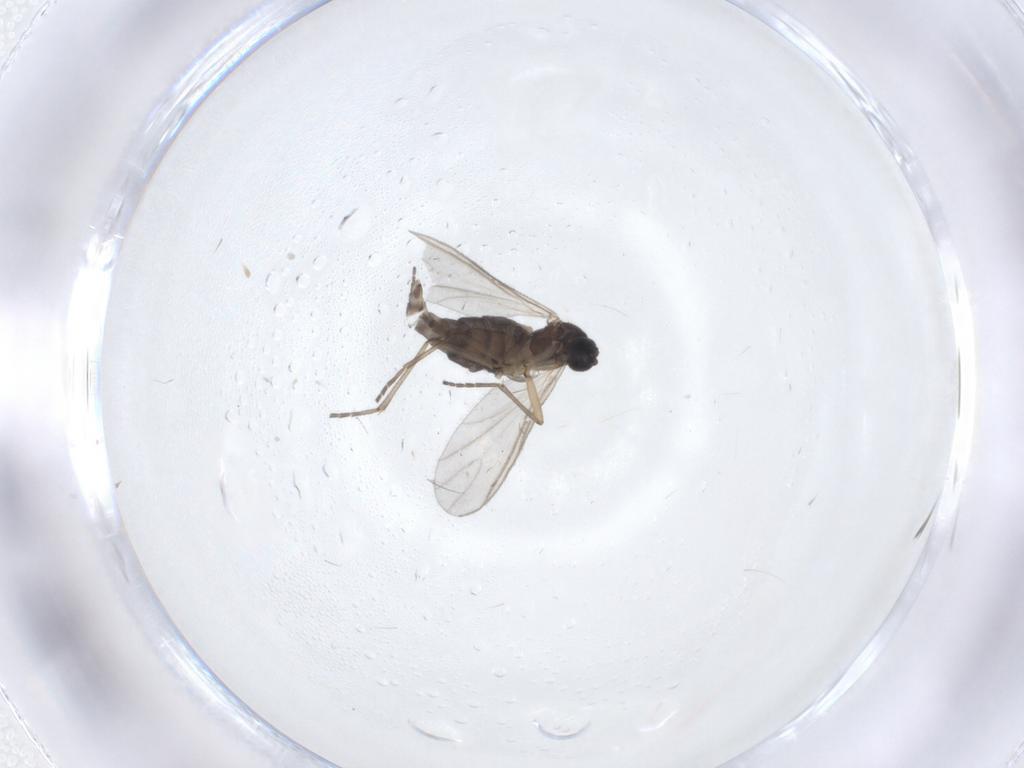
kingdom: Animalia
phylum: Arthropoda
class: Insecta
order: Diptera
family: Sciaridae
